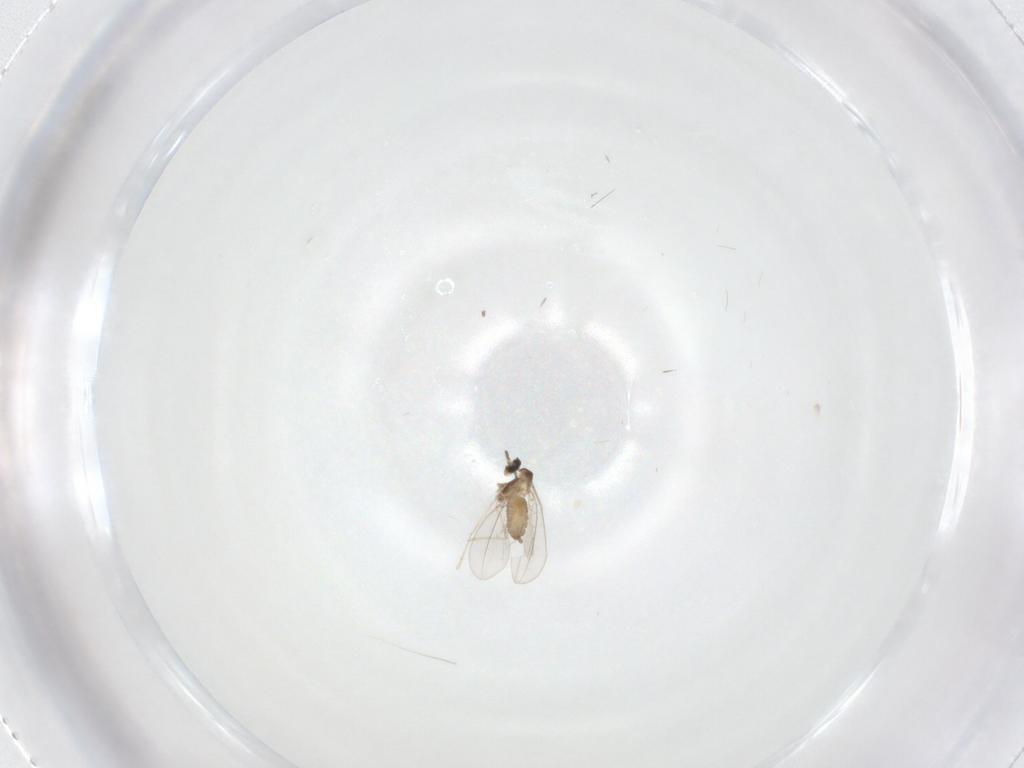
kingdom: Animalia
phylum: Arthropoda
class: Insecta
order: Diptera
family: Cecidomyiidae
